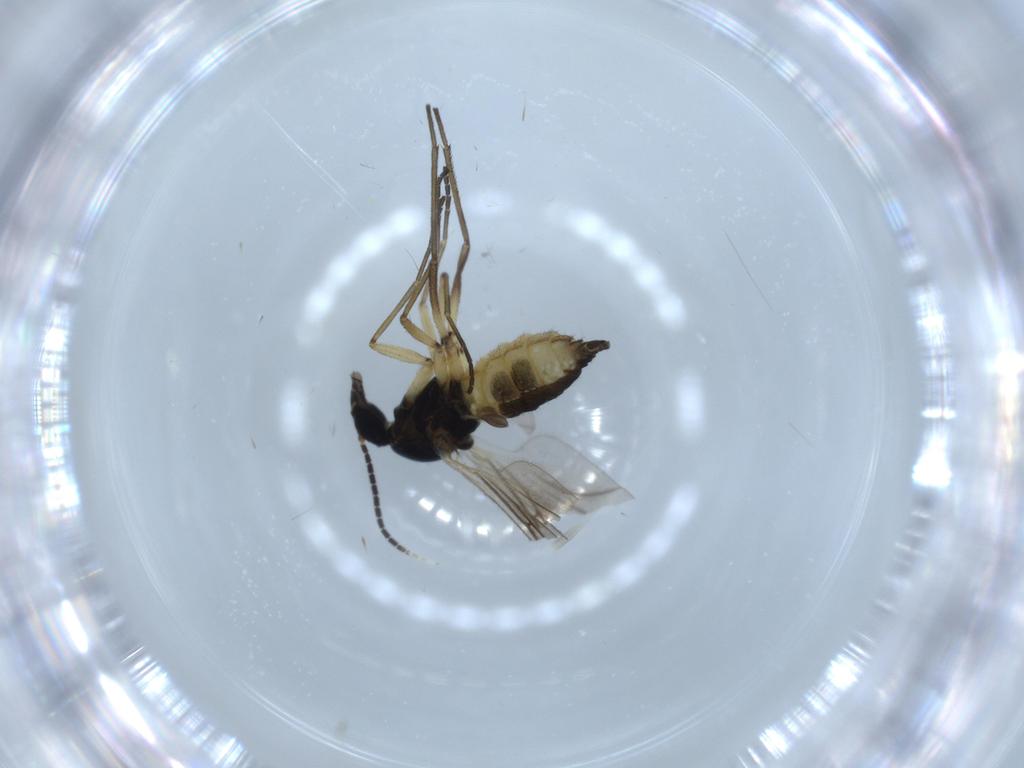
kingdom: Animalia
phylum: Arthropoda
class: Insecta
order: Diptera
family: Sciaridae
